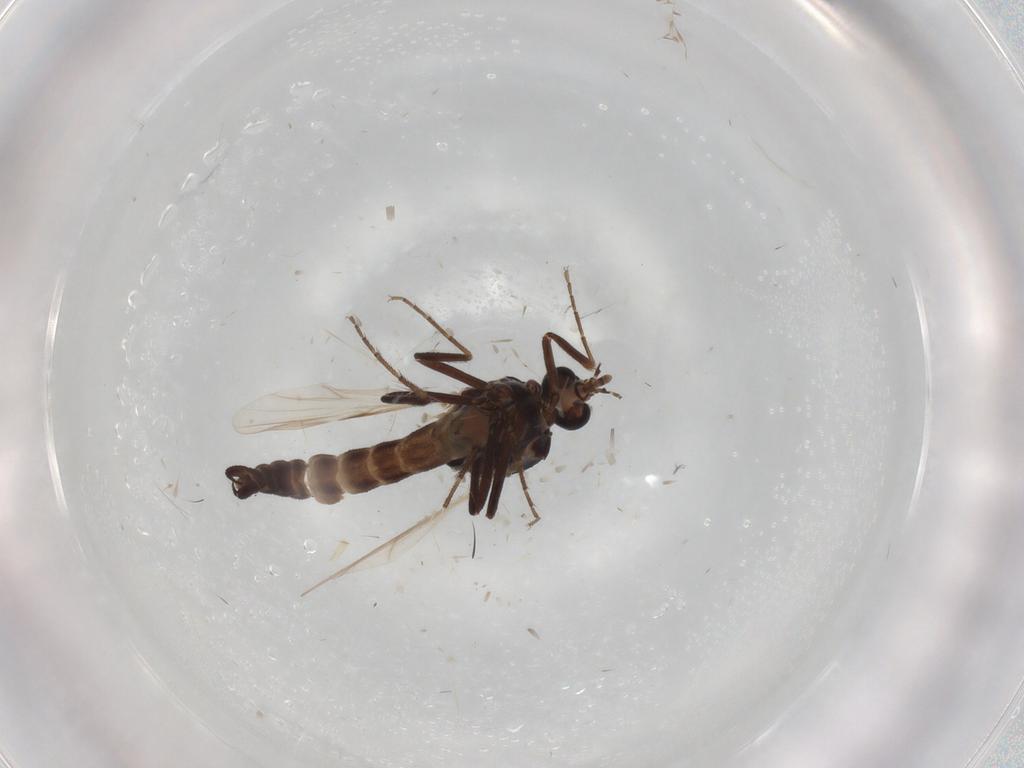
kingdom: Animalia
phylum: Arthropoda
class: Insecta
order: Diptera
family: Ceratopogonidae
